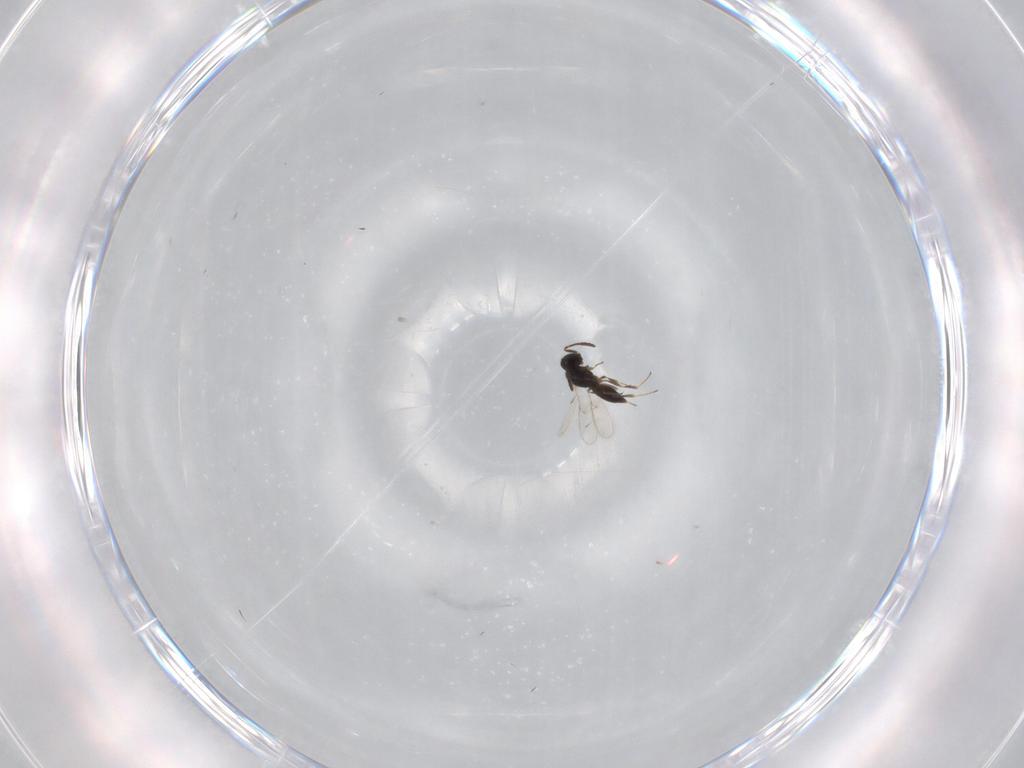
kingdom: Animalia
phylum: Arthropoda
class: Insecta
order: Hymenoptera
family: Scelionidae
